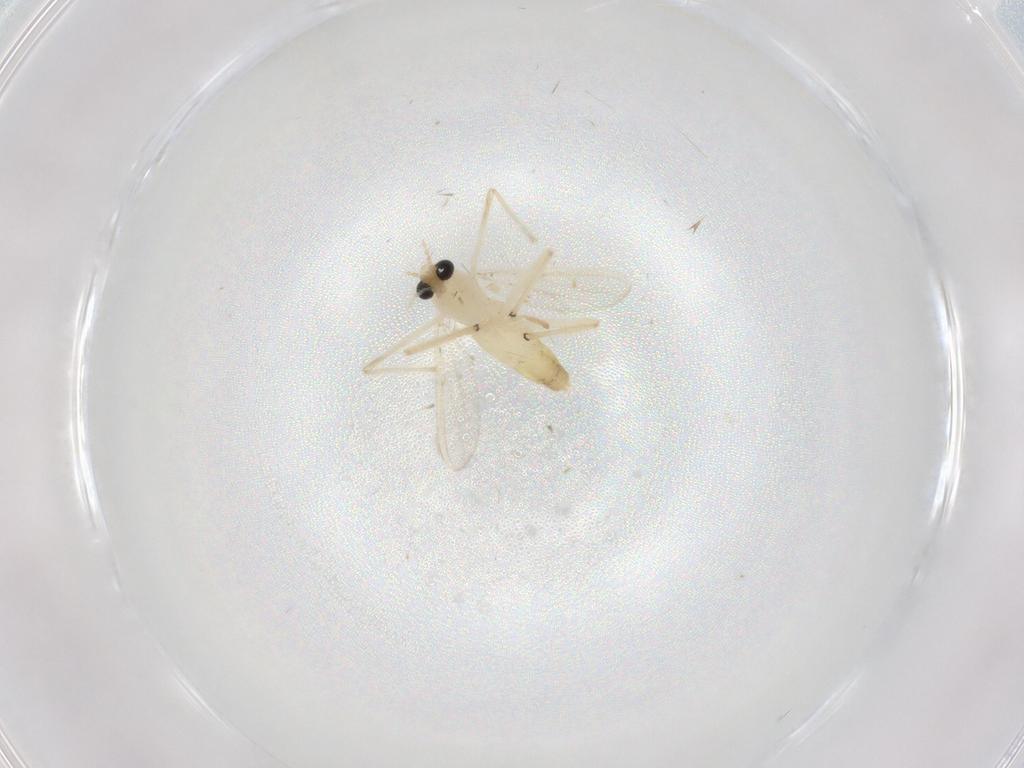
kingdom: Animalia
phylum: Arthropoda
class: Insecta
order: Diptera
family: Chironomidae
